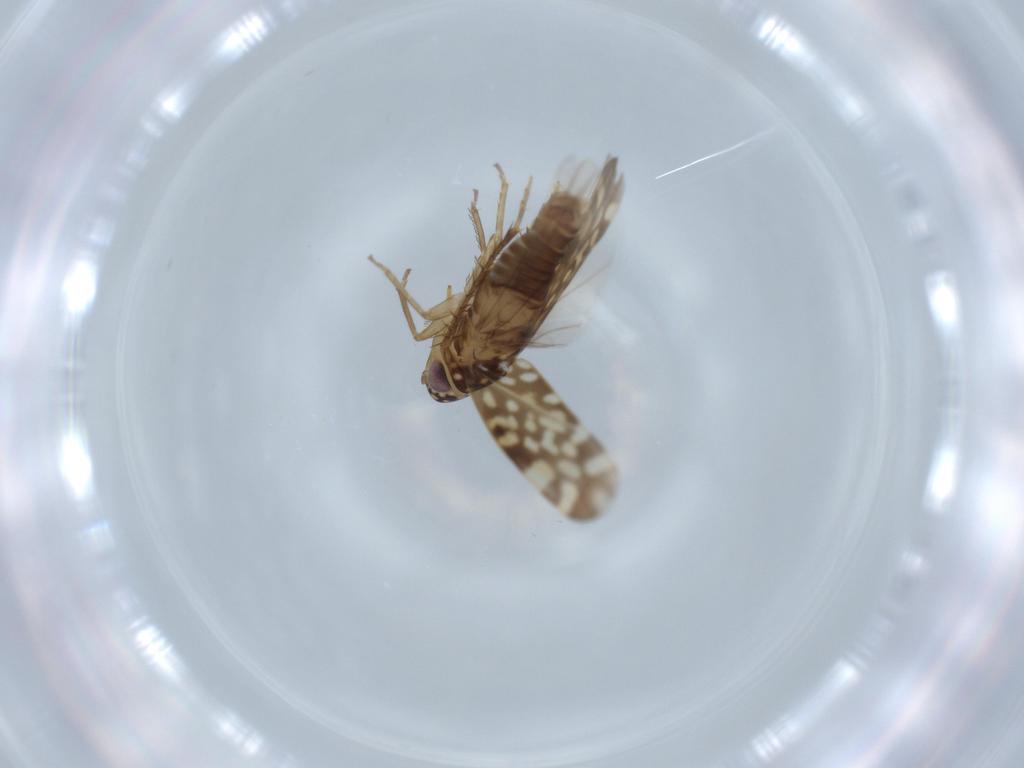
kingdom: Animalia
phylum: Arthropoda
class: Insecta
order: Hemiptera
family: Cicadellidae
